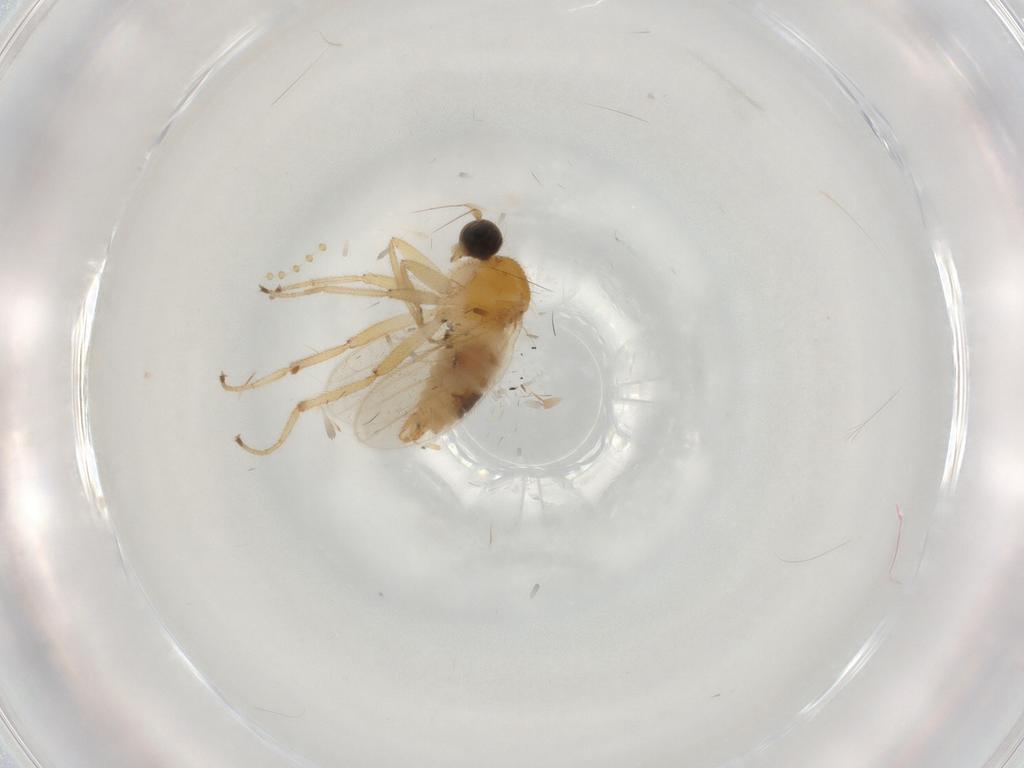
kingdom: Animalia
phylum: Arthropoda
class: Insecta
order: Diptera
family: Hybotidae
